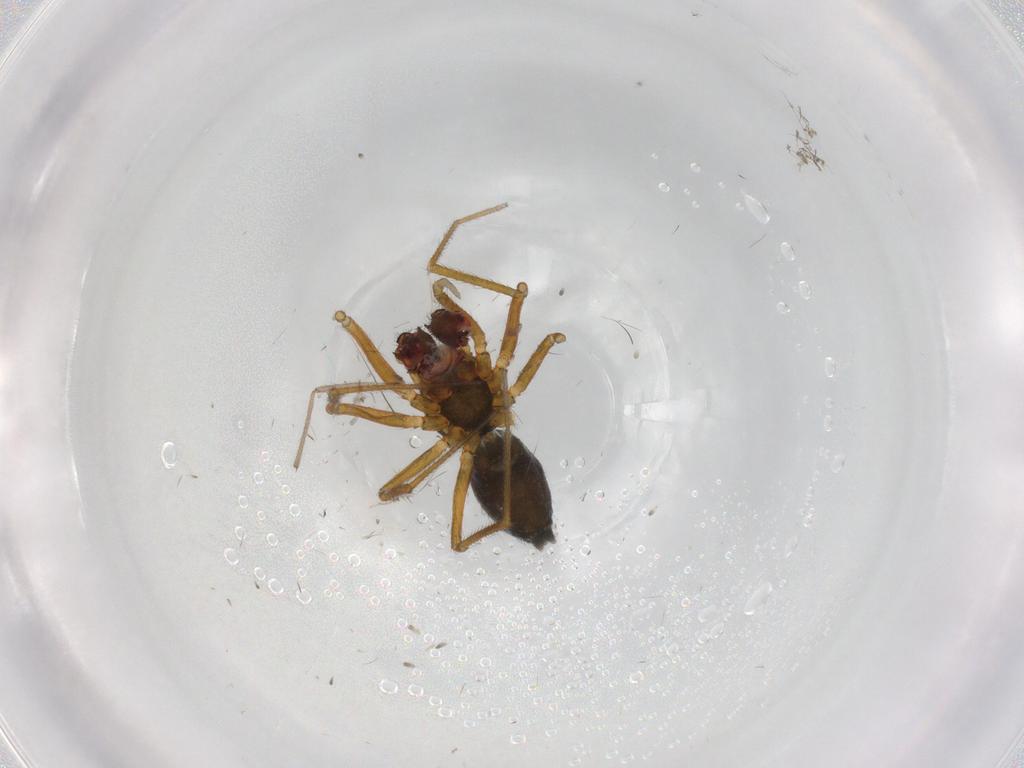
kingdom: Animalia
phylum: Arthropoda
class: Arachnida
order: Araneae
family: Linyphiidae
